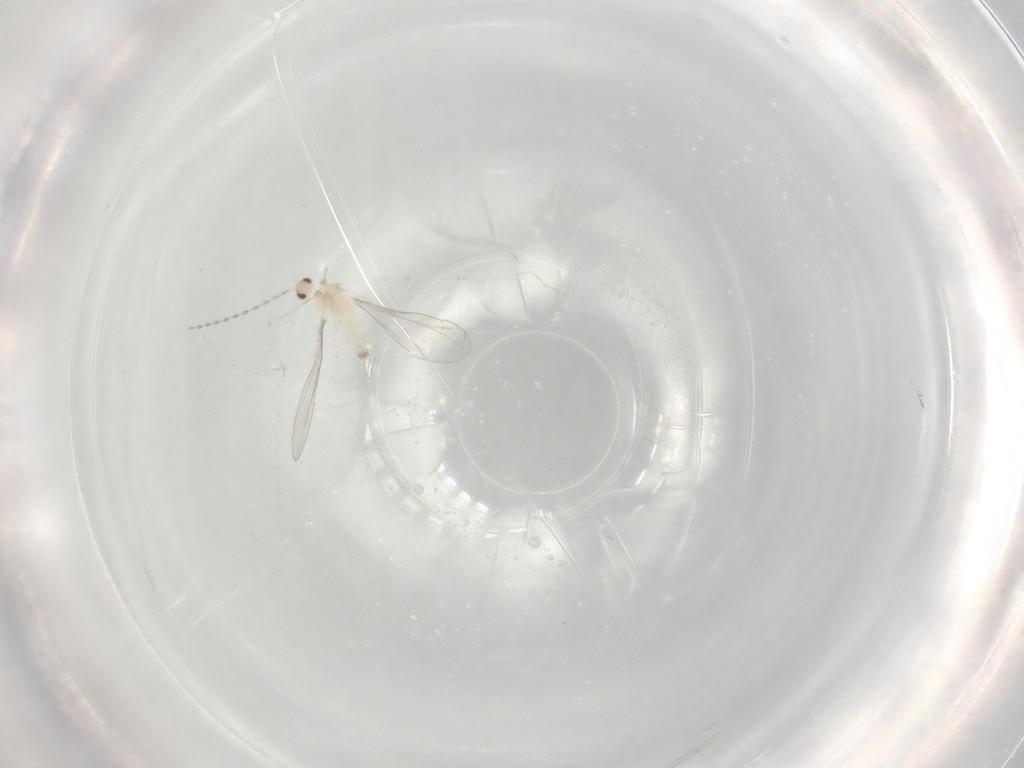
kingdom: Animalia
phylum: Arthropoda
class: Insecta
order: Diptera
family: Cecidomyiidae
